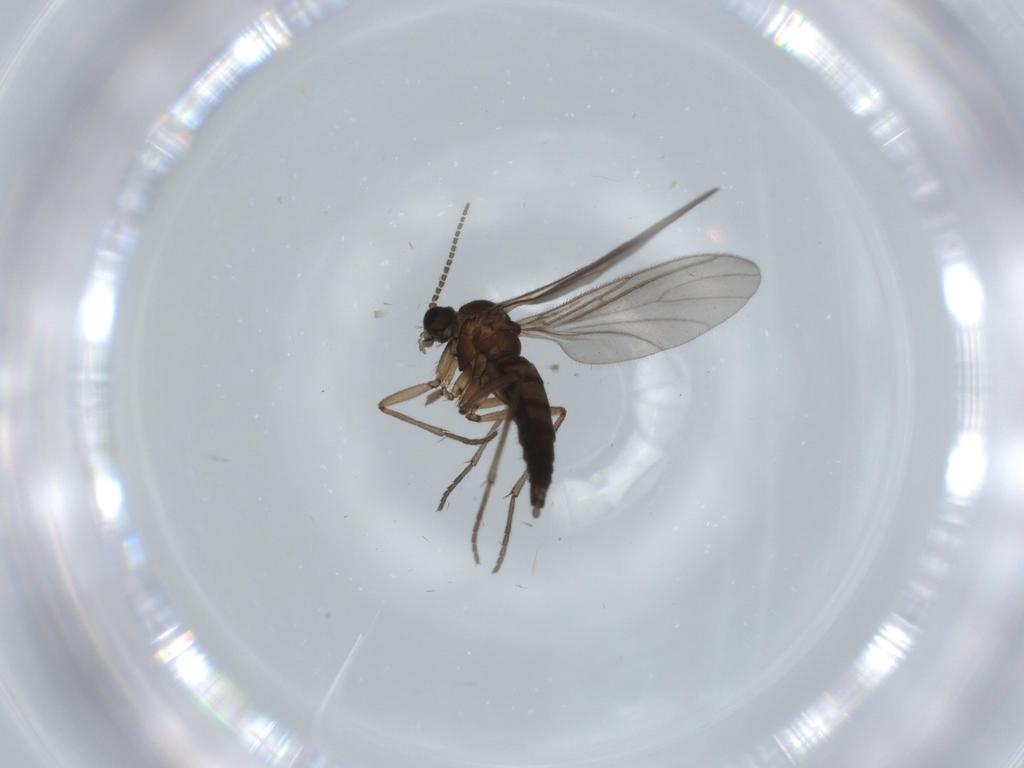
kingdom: Animalia
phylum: Arthropoda
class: Insecta
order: Diptera
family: Sciaridae
